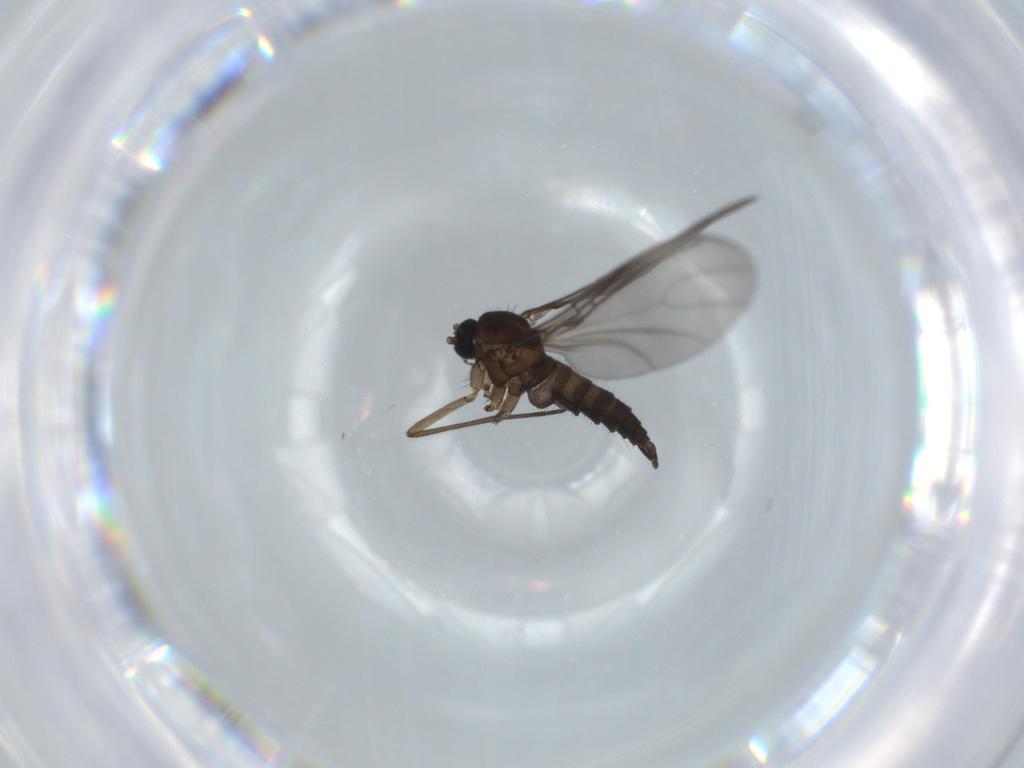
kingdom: Animalia
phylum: Arthropoda
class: Insecta
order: Diptera
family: Sciaridae
